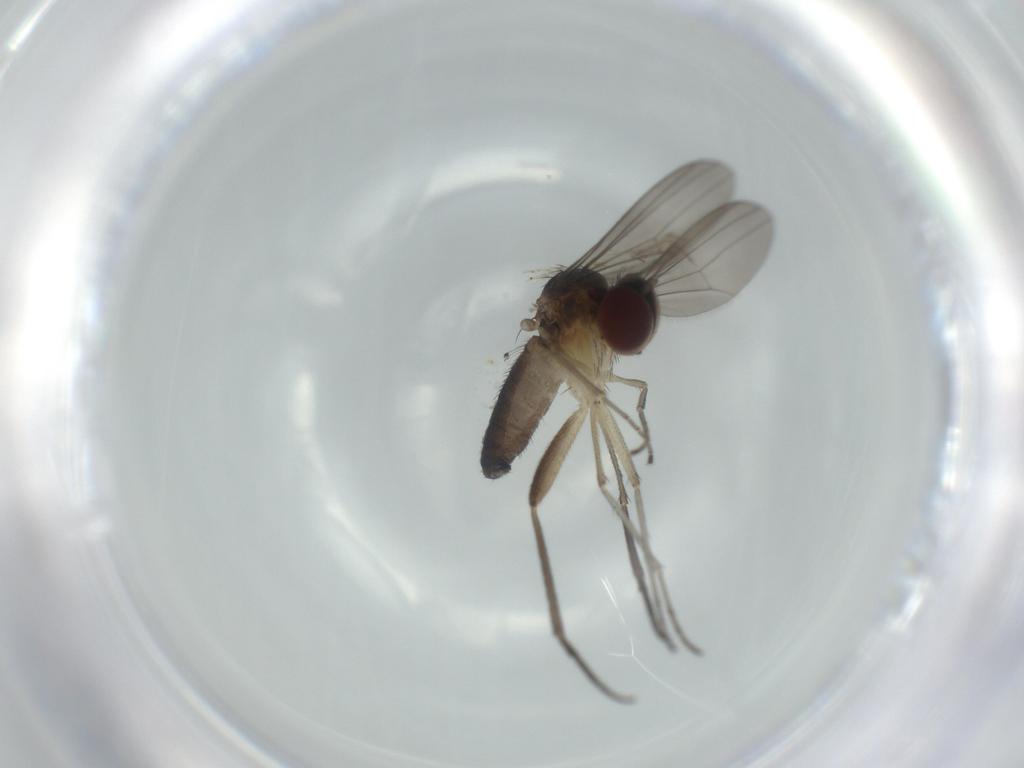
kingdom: Animalia
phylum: Arthropoda
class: Insecta
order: Diptera
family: Dolichopodidae
